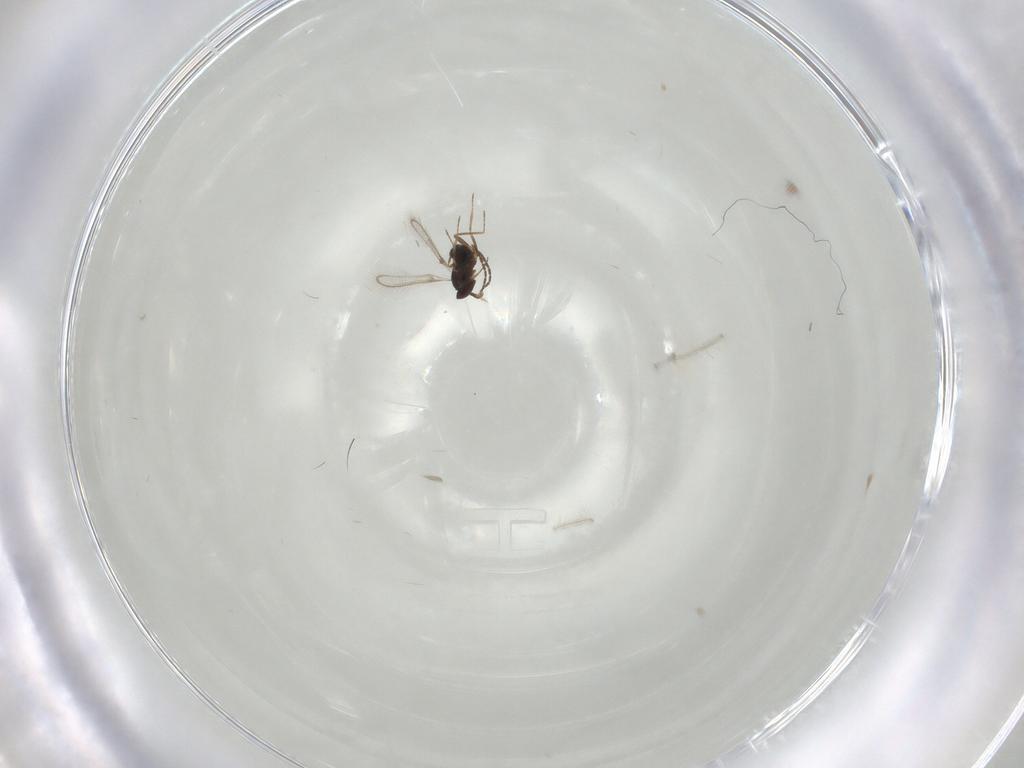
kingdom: Animalia
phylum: Arthropoda
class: Insecta
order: Hymenoptera
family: Mymaridae
